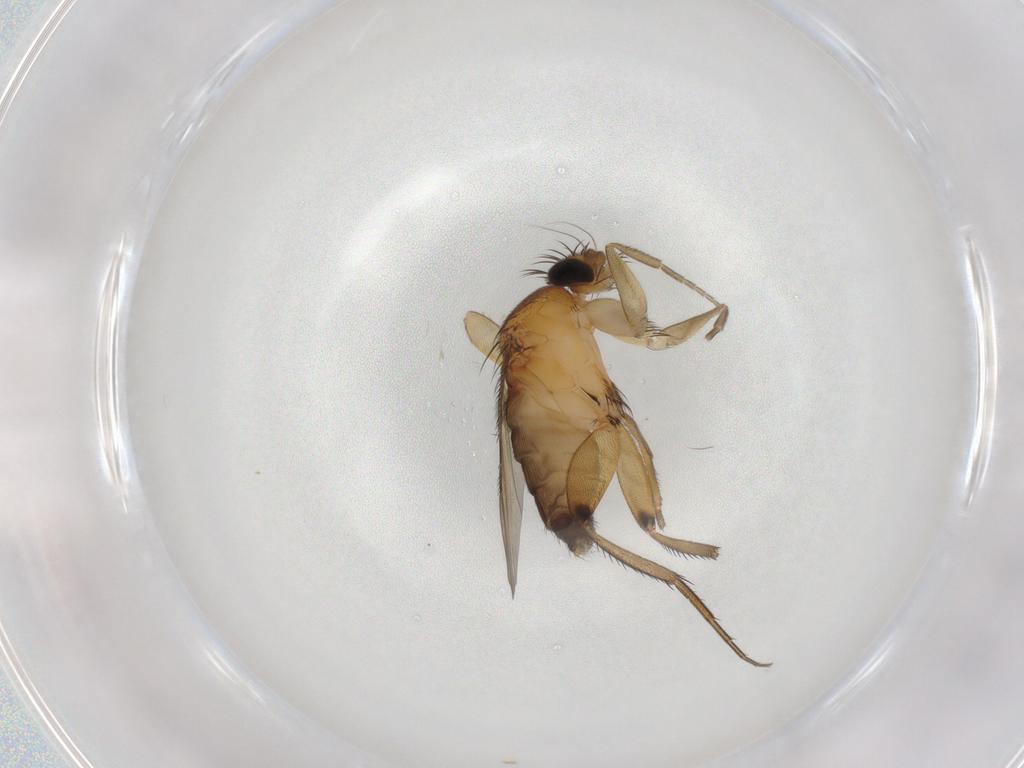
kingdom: Animalia
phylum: Arthropoda
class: Insecta
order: Diptera
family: Phoridae
